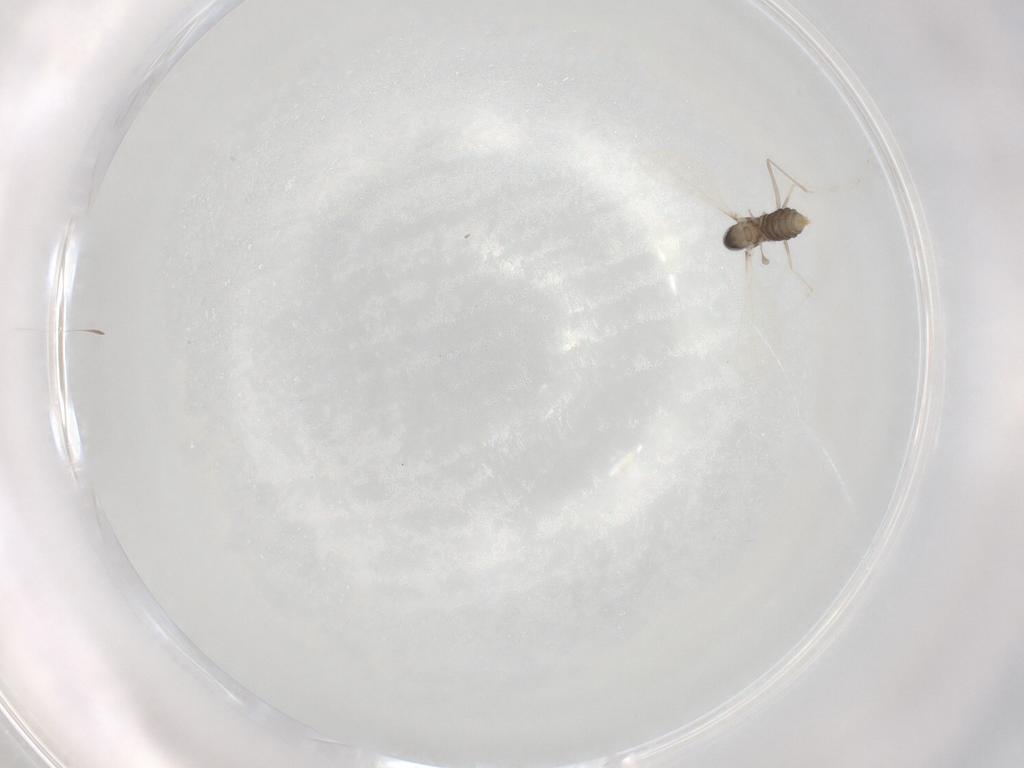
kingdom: Animalia
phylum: Arthropoda
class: Insecta
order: Diptera
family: Cecidomyiidae
